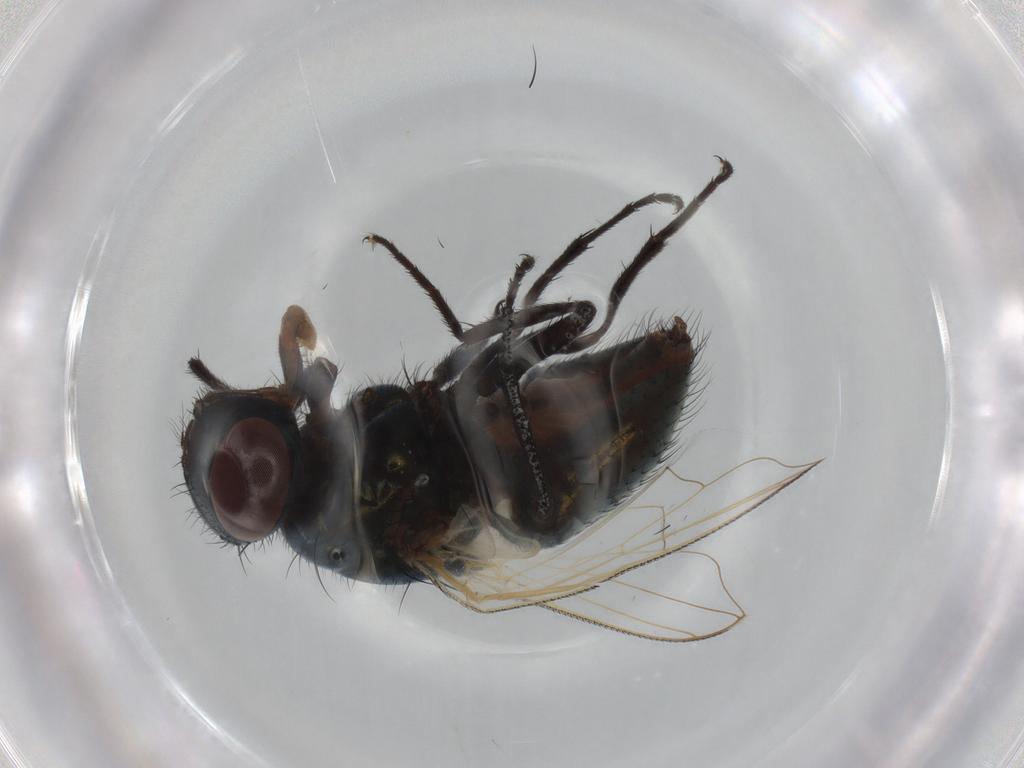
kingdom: Animalia
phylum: Arthropoda
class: Insecta
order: Diptera
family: Muscidae
